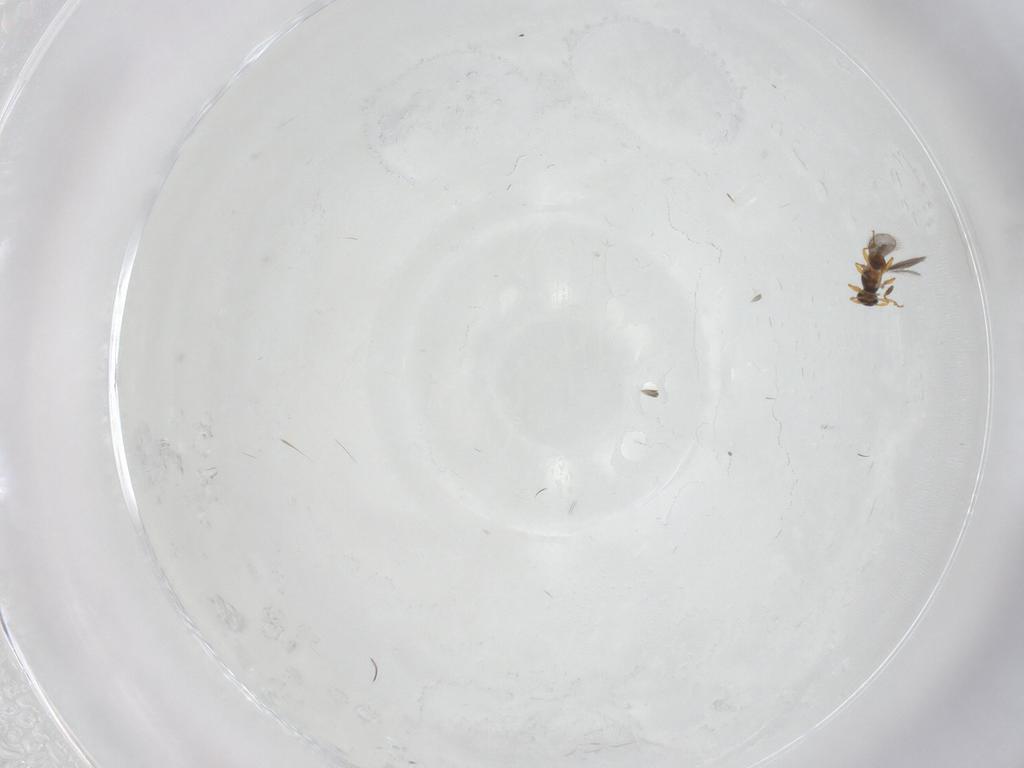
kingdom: Animalia
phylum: Arthropoda
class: Insecta
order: Hymenoptera
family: Platygastridae
